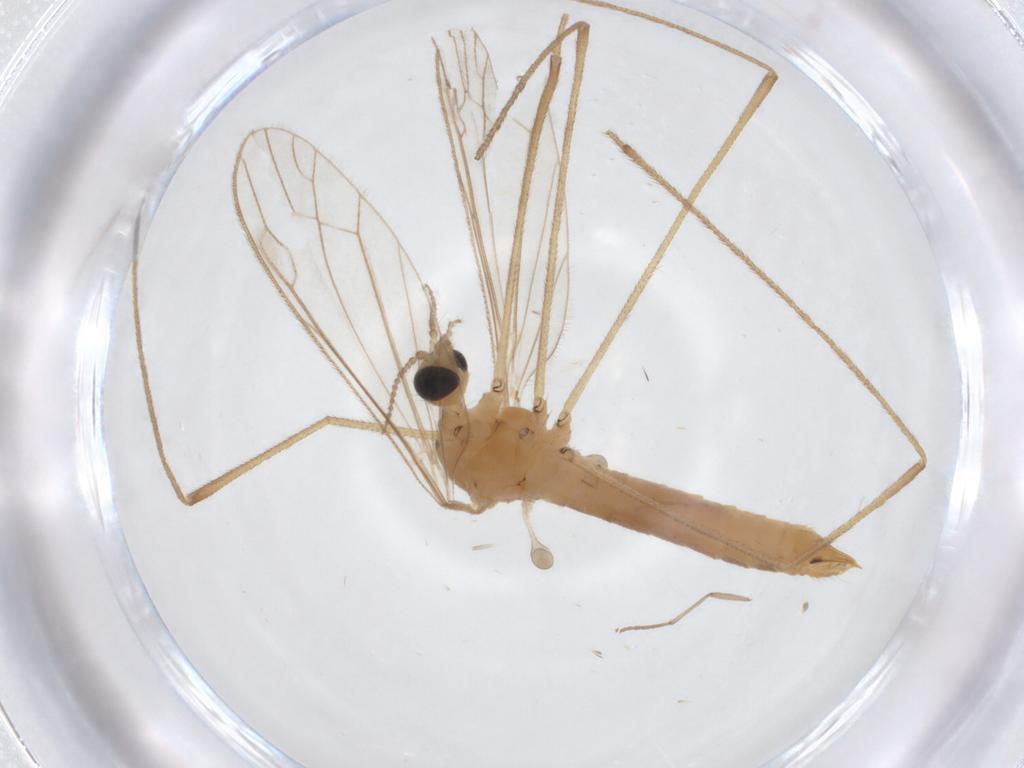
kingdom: Animalia
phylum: Arthropoda
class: Insecta
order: Diptera
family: Limoniidae
